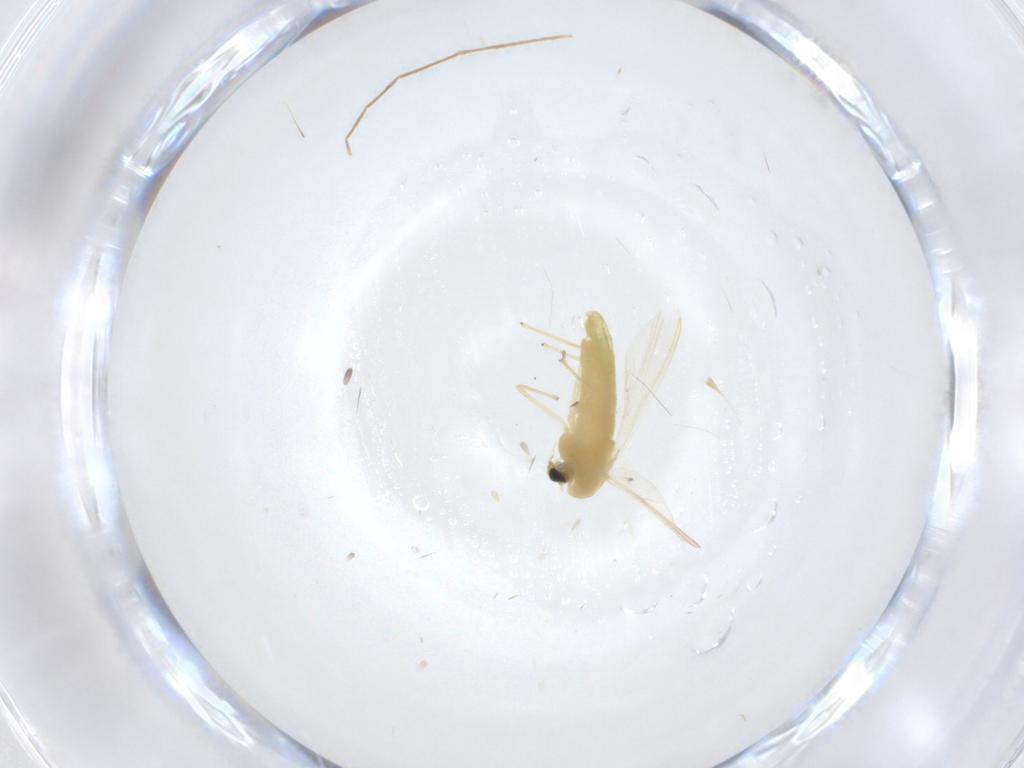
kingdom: Animalia
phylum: Arthropoda
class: Insecta
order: Diptera
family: Chironomidae
